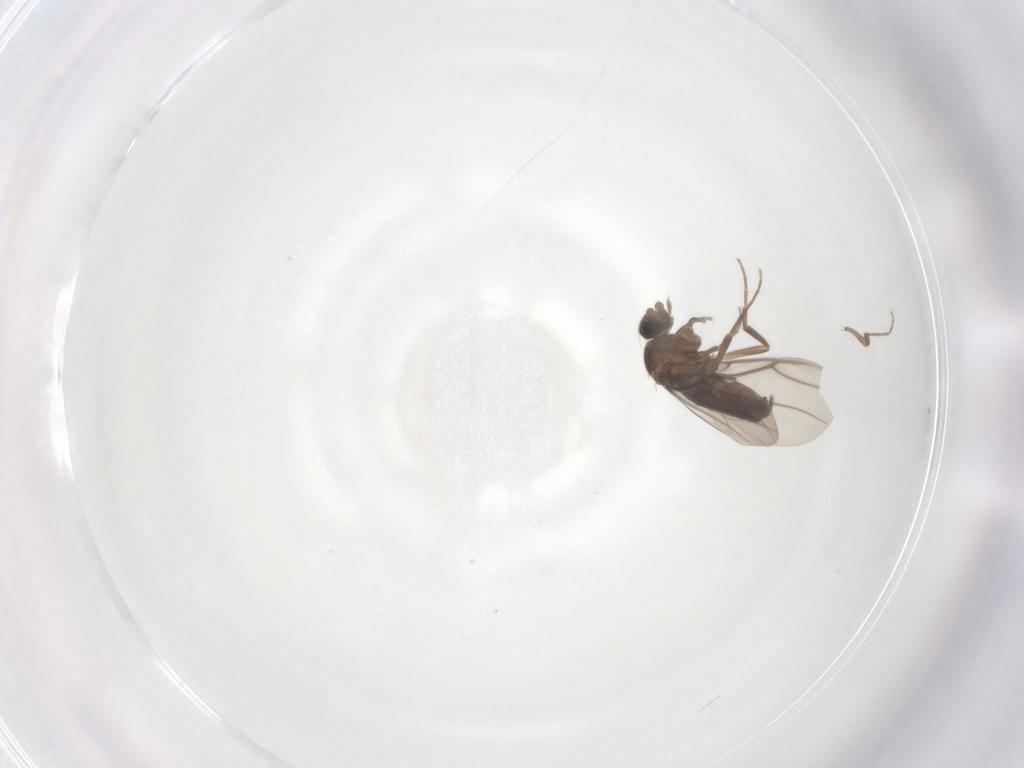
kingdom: Animalia
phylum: Arthropoda
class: Insecta
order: Diptera
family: Phoridae
